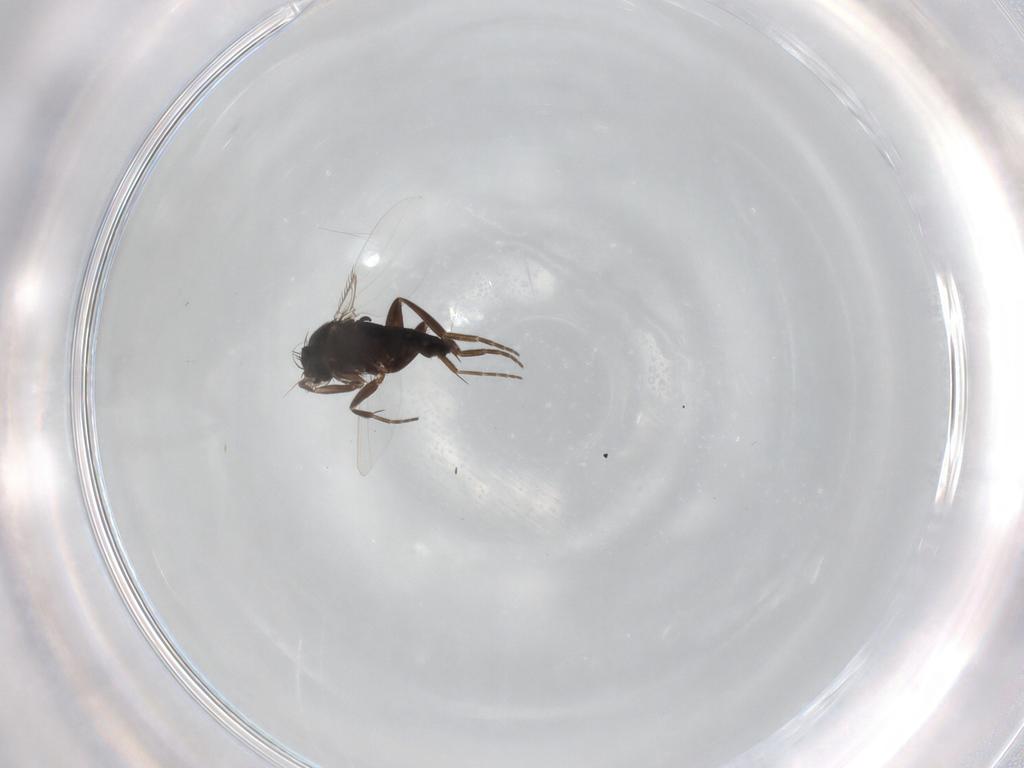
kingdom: Animalia
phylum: Arthropoda
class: Insecta
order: Diptera
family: Phoridae
